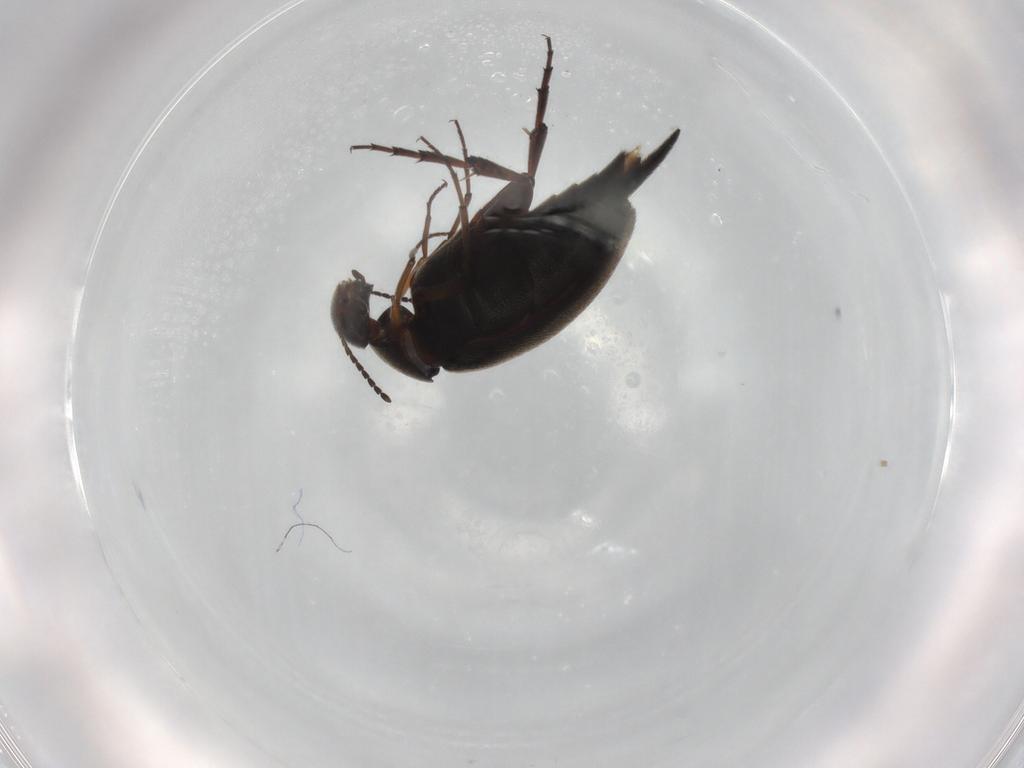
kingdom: Animalia
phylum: Arthropoda
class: Insecta
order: Coleoptera
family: Mordellidae
